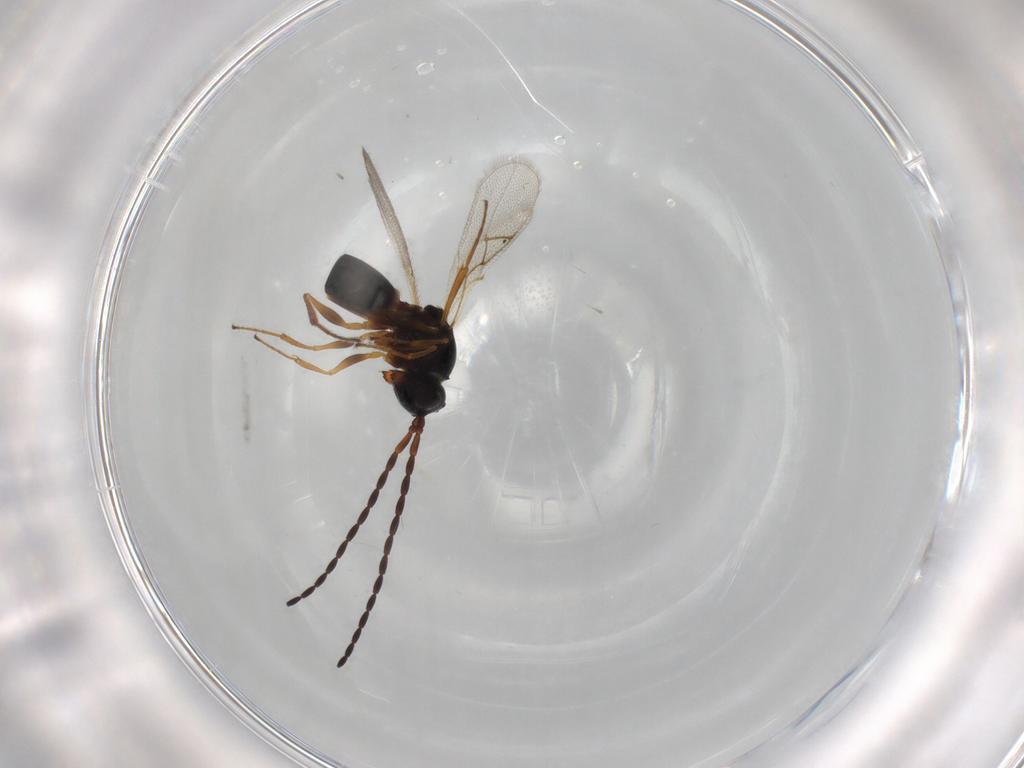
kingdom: Animalia
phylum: Arthropoda
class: Insecta
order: Hymenoptera
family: Figitidae
